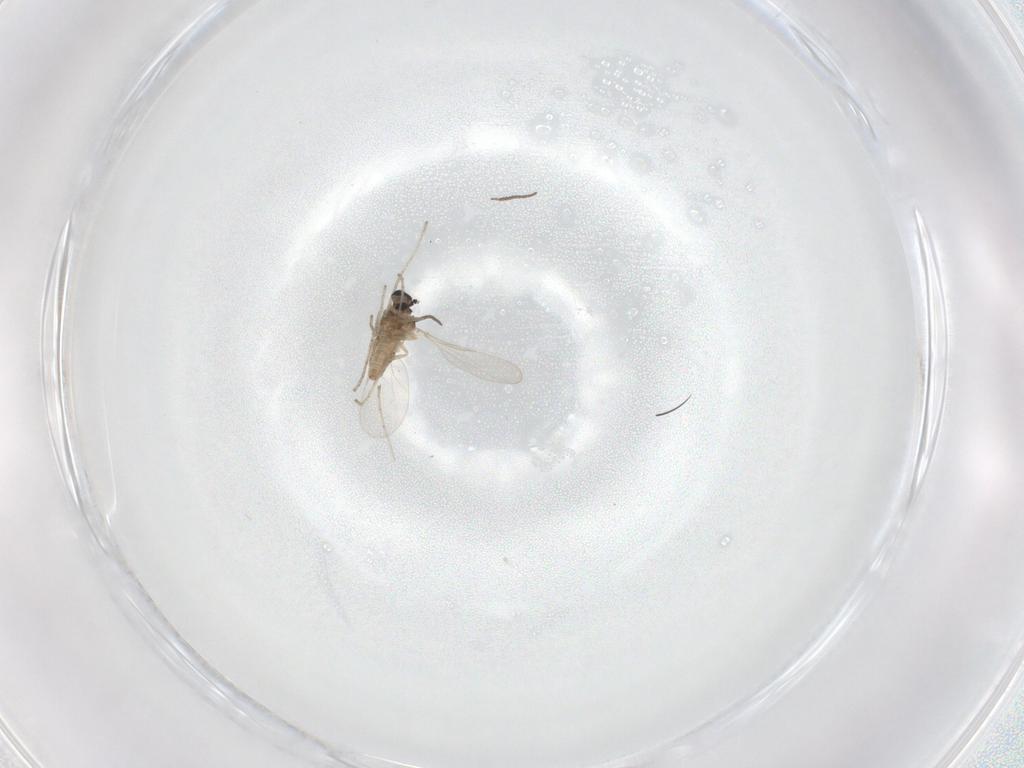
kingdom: Animalia
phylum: Arthropoda
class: Insecta
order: Diptera
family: Cecidomyiidae
